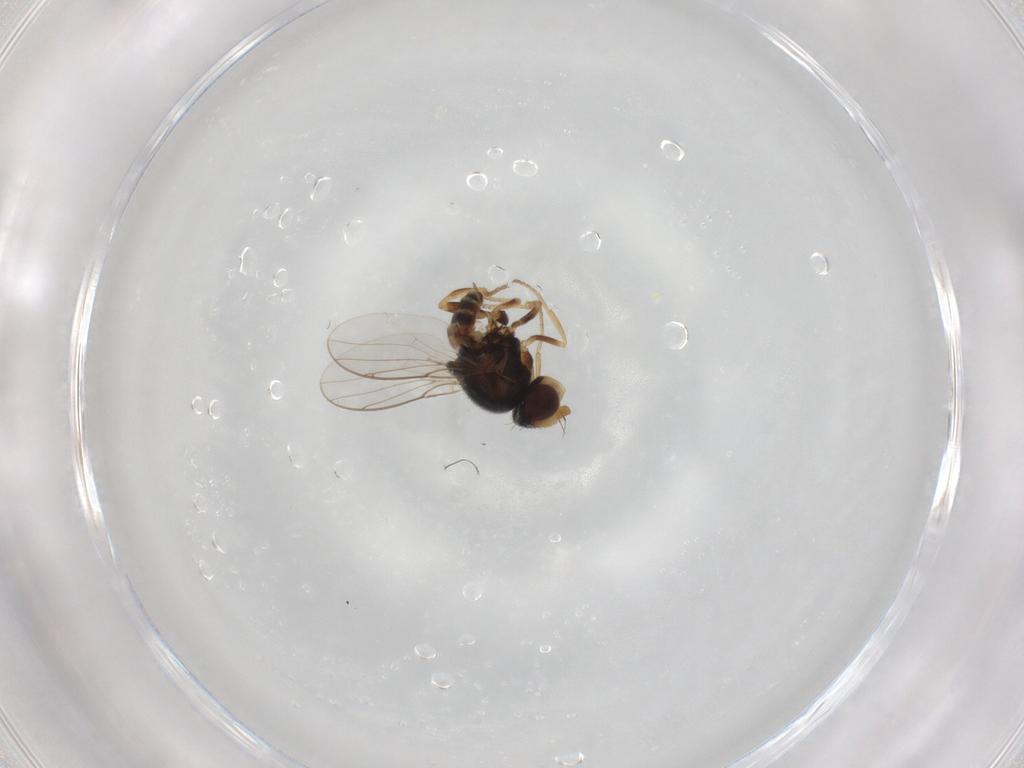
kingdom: Animalia
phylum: Arthropoda
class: Insecta
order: Diptera
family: Chloropidae
